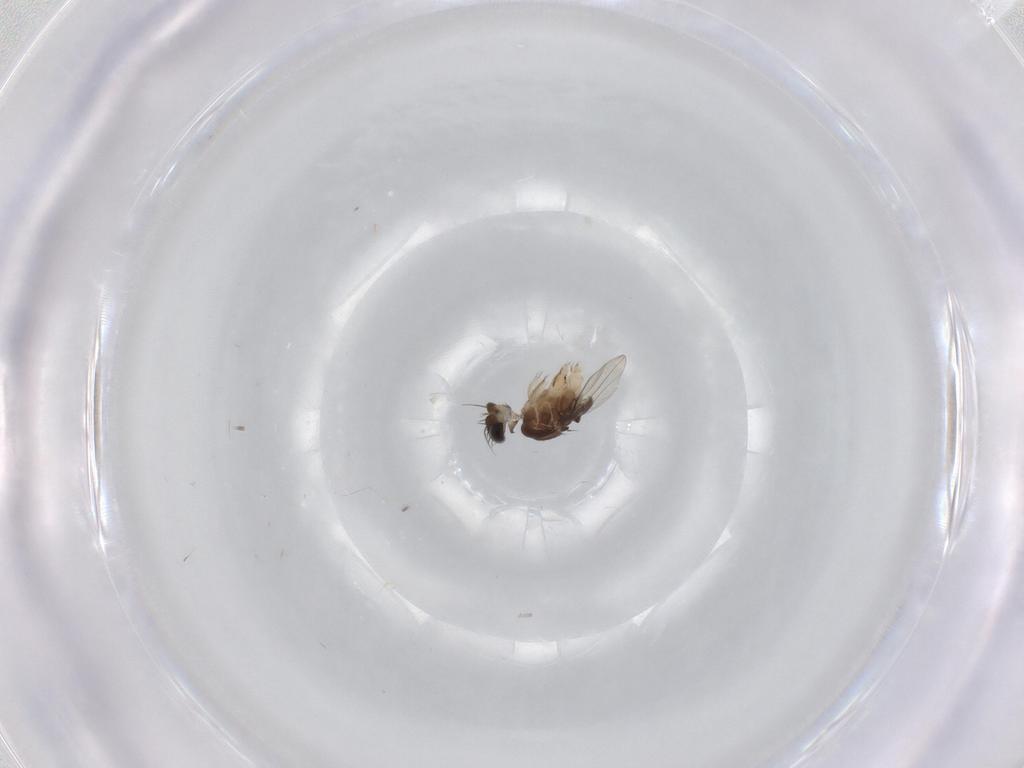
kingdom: Animalia
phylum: Arthropoda
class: Insecta
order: Diptera
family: Phoridae
